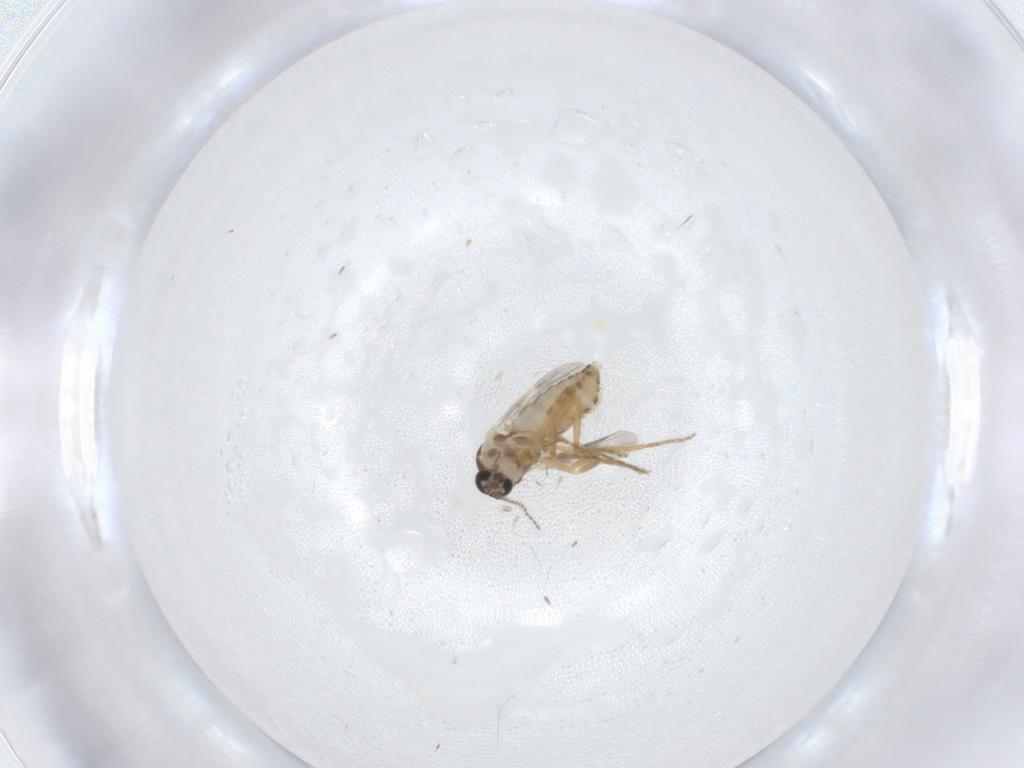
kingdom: Animalia
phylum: Arthropoda
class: Insecta
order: Diptera
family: Ceratopogonidae
